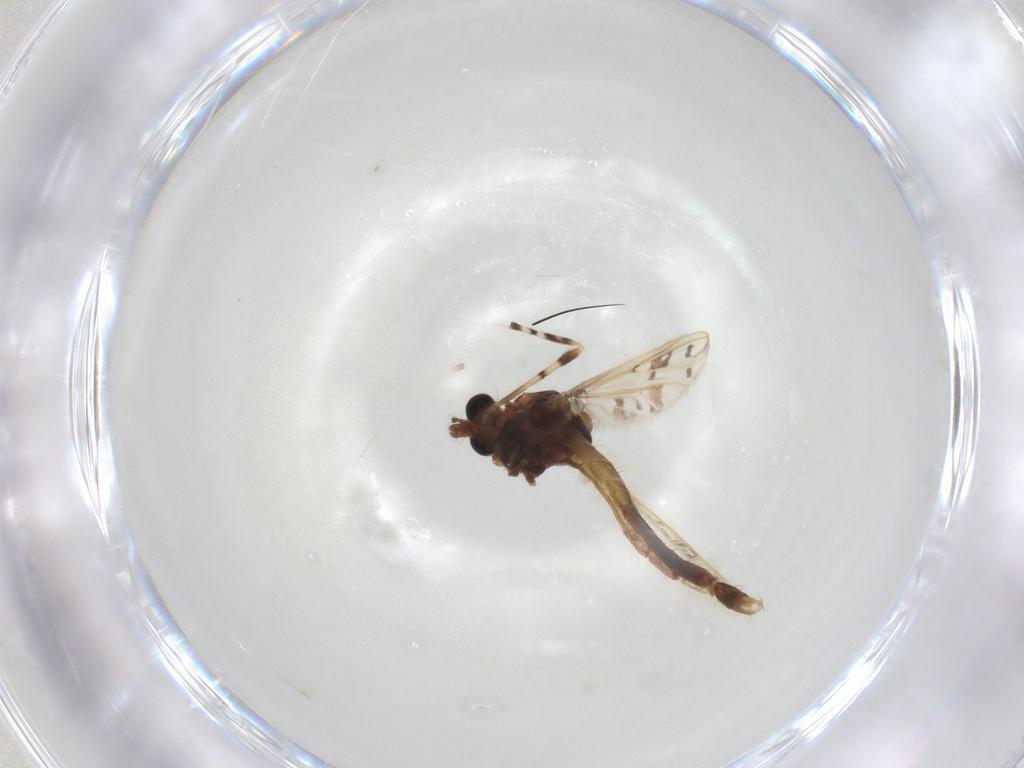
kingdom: Animalia
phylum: Arthropoda
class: Insecta
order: Diptera
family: Chironomidae
